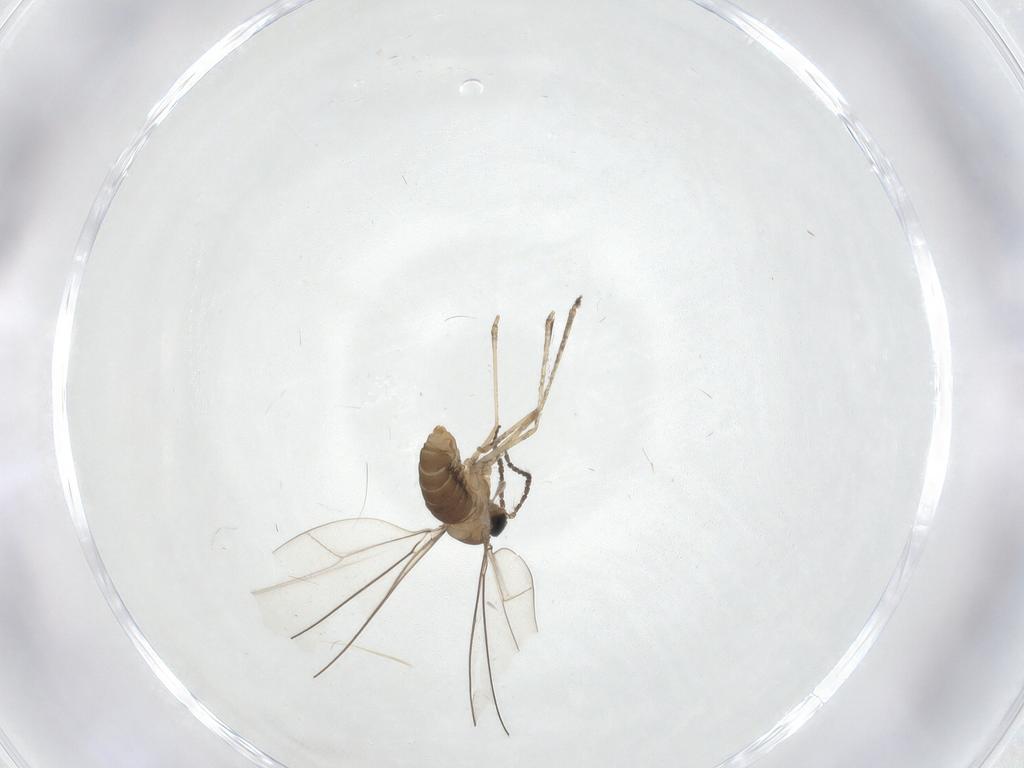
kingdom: Animalia
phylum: Arthropoda
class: Insecta
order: Diptera
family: Cecidomyiidae
